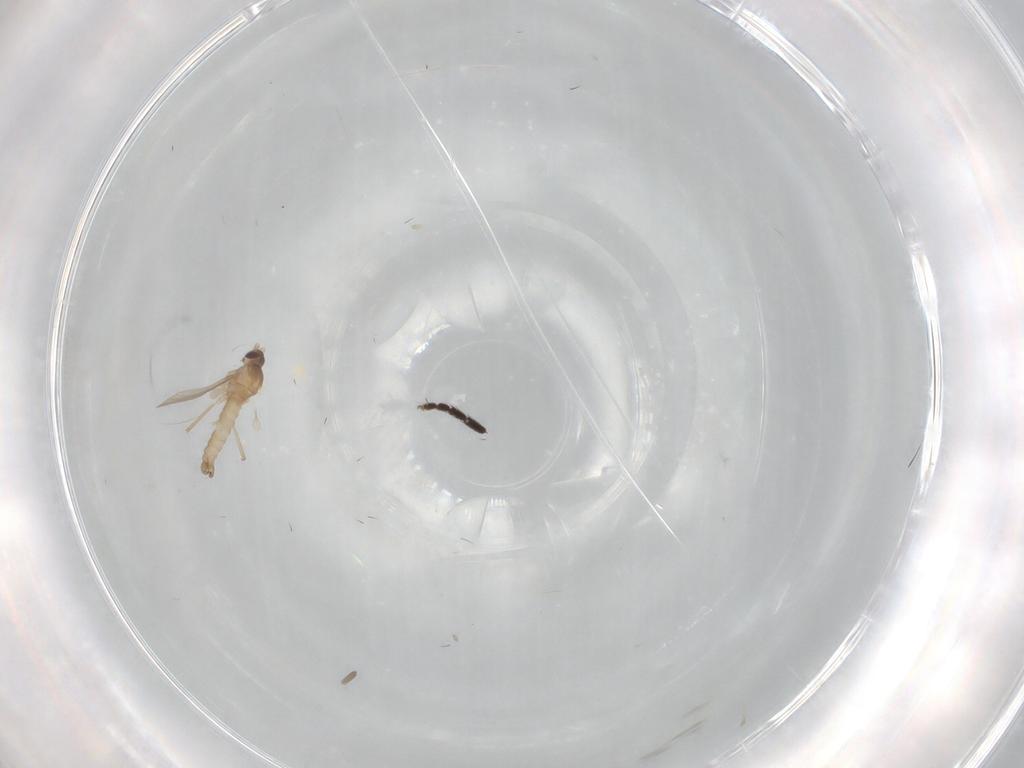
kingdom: Animalia
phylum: Arthropoda
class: Insecta
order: Diptera
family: Cecidomyiidae
